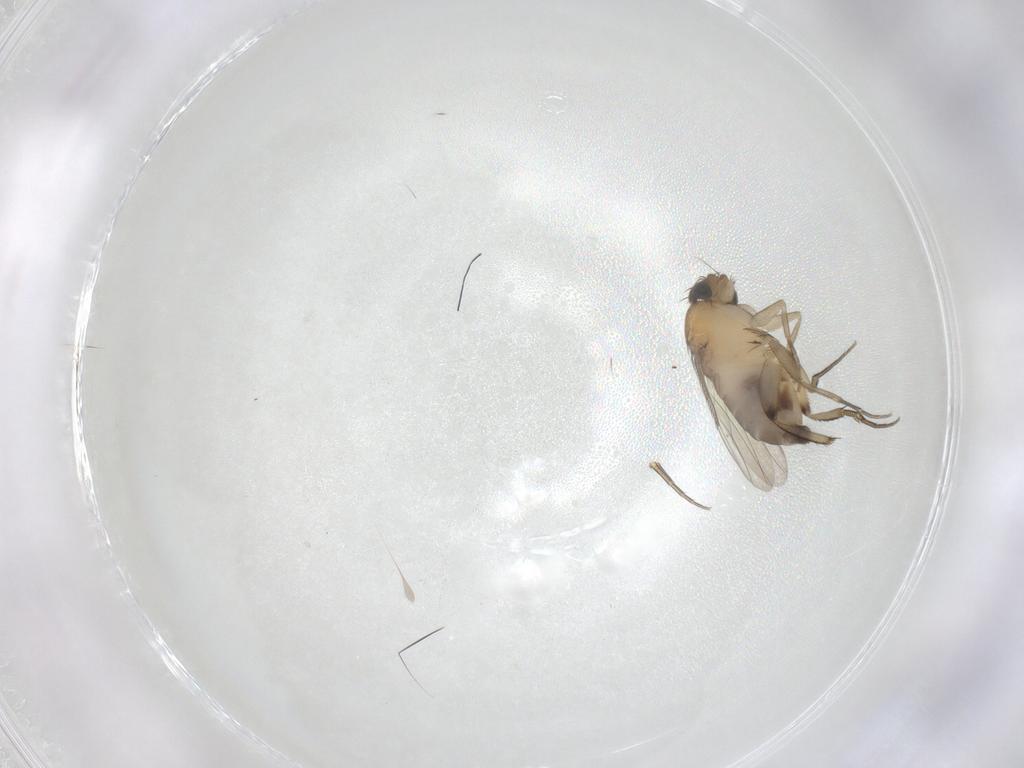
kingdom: Animalia
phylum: Arthropoda
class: Insecta
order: Diptera
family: Phoridae
